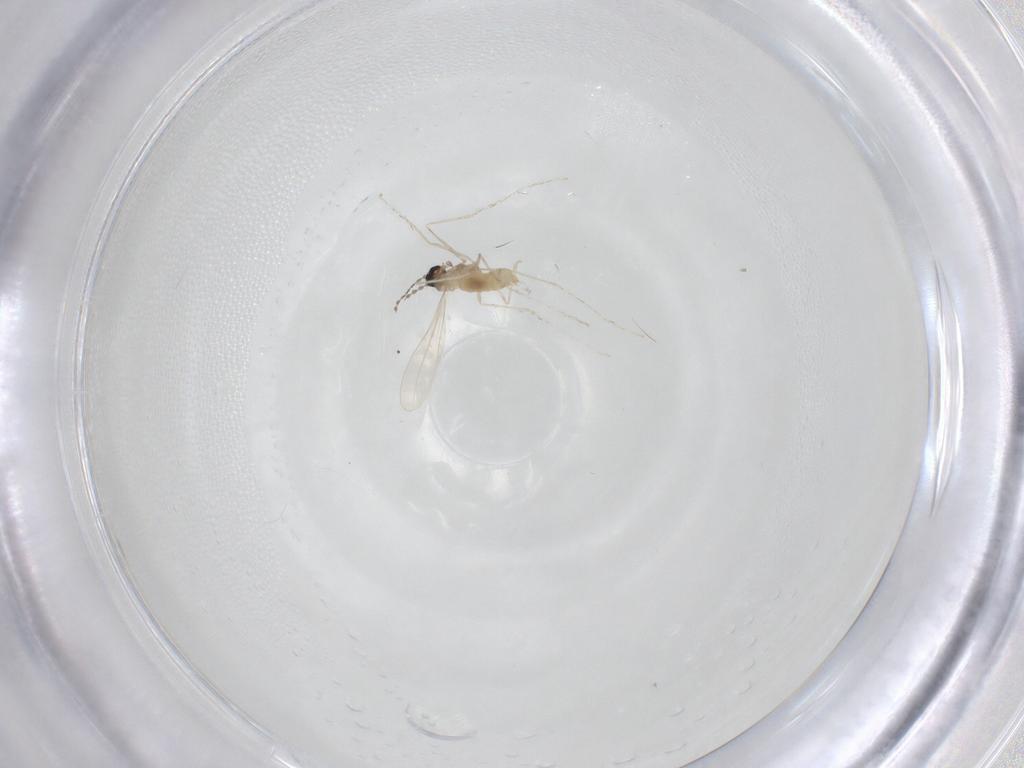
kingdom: Animalia
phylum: Arthropoda
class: Insecta
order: Diptera
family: Cecidomyiidae
